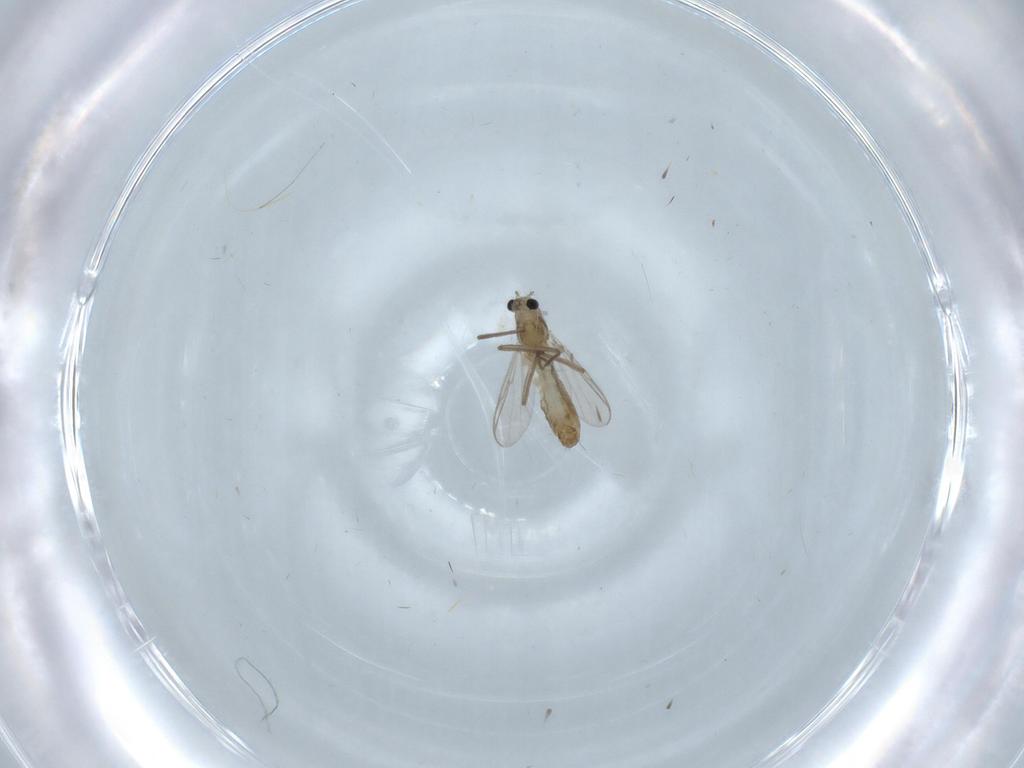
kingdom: Animalia
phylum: Arthropoda
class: Insecta
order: Diptera
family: Chironomidae
